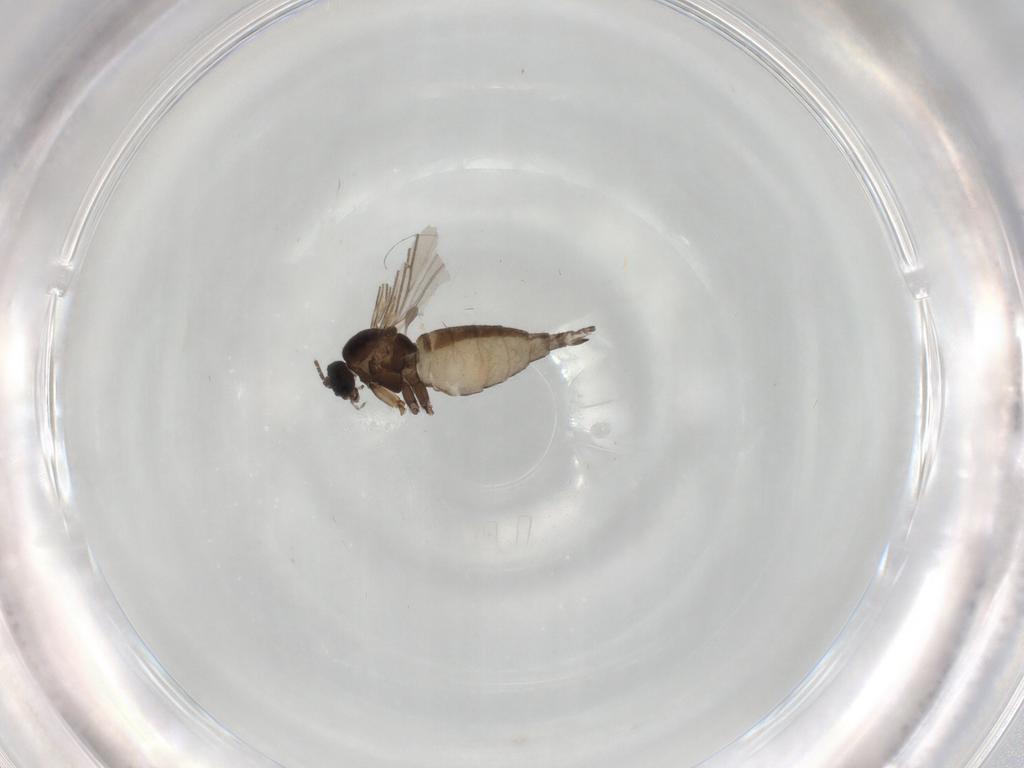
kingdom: Animalia
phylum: Arthropoda
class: Insecta
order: Diptera
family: Sciaridae
